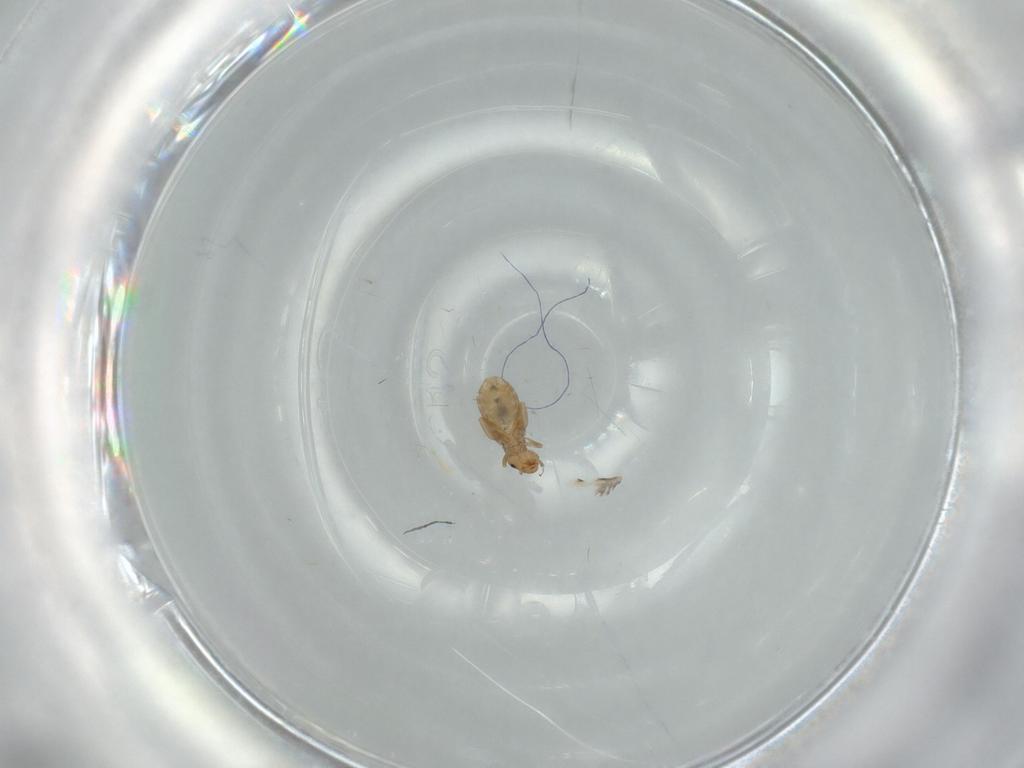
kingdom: Animalia
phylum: Arthropoda
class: Insecta
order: Psocodea
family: Liposcelididae
